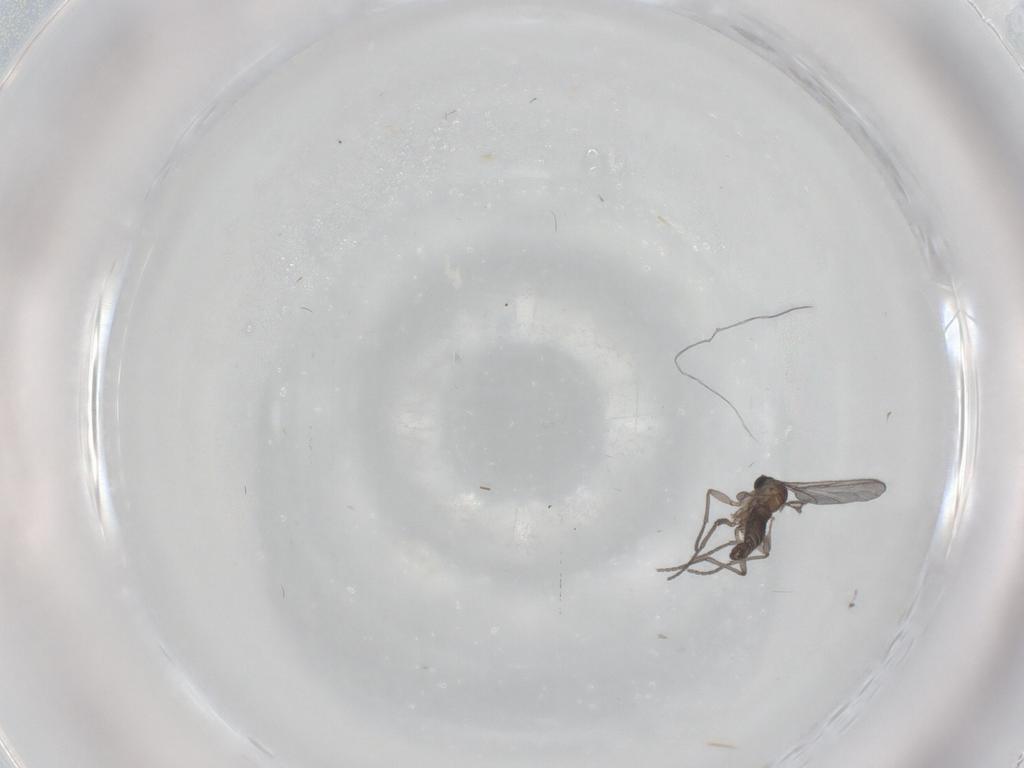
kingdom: Animalia
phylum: Arthropoda
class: Insecta
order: Diptera
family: Sciaridae
